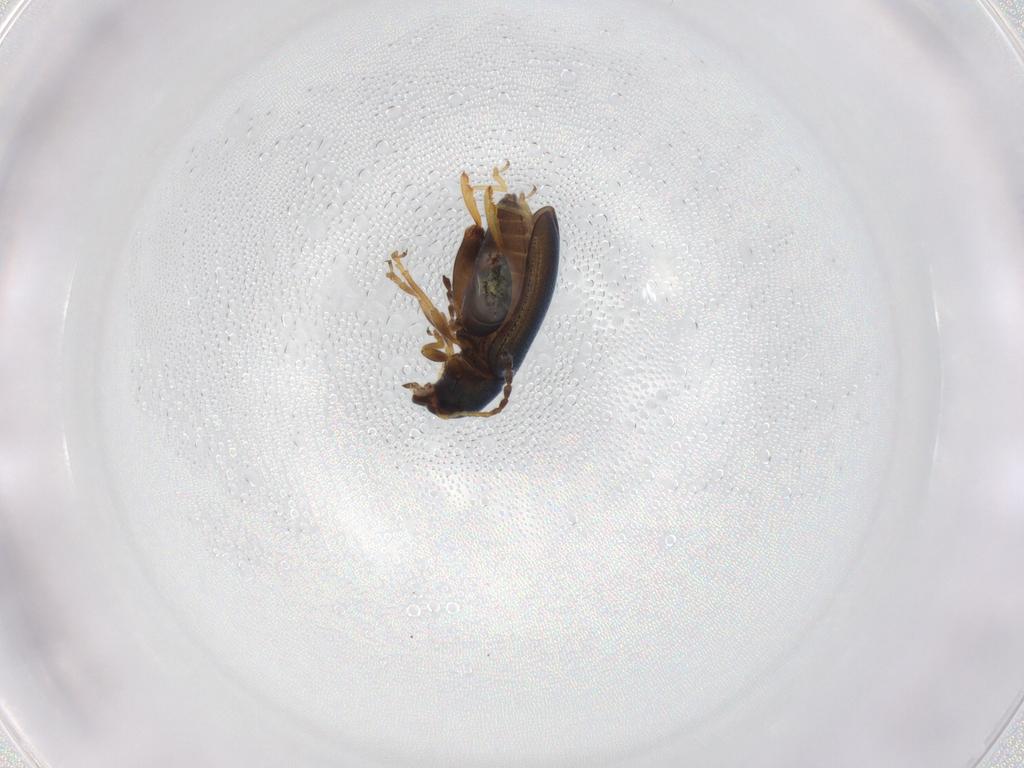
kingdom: Animalia
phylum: Arthropoda
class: Insecta
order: Coleoptera
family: Chrysomelidae
